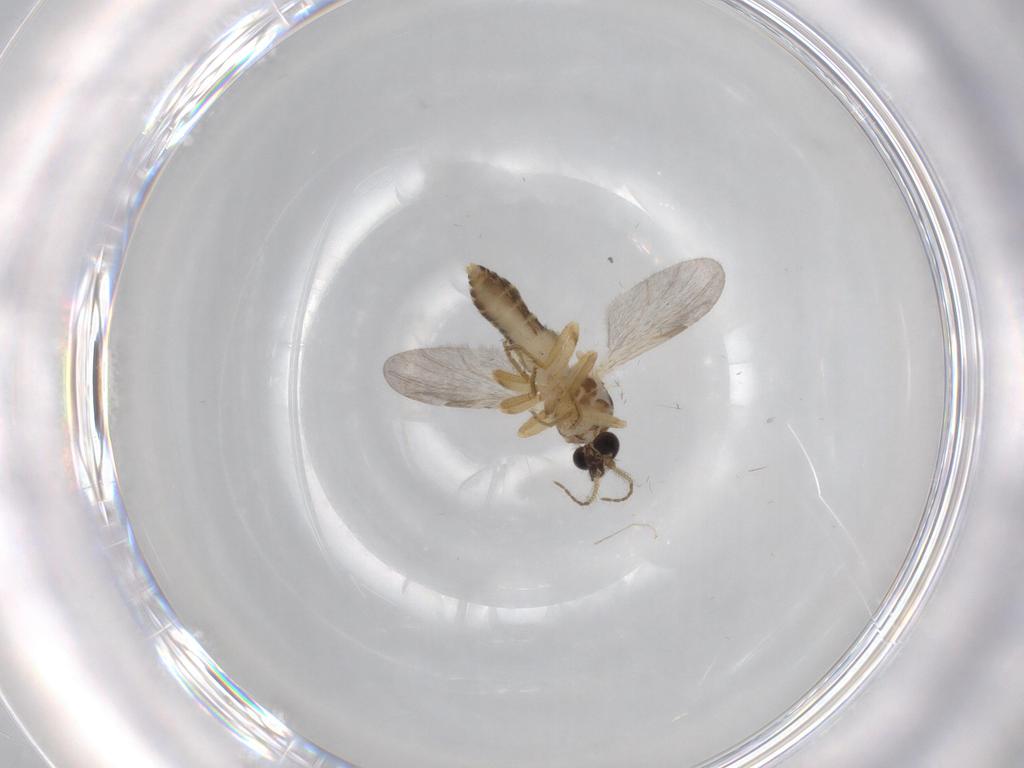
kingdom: Animalia
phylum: Arthropoda
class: Insecta
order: Diptera
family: Ceratopogonidae
